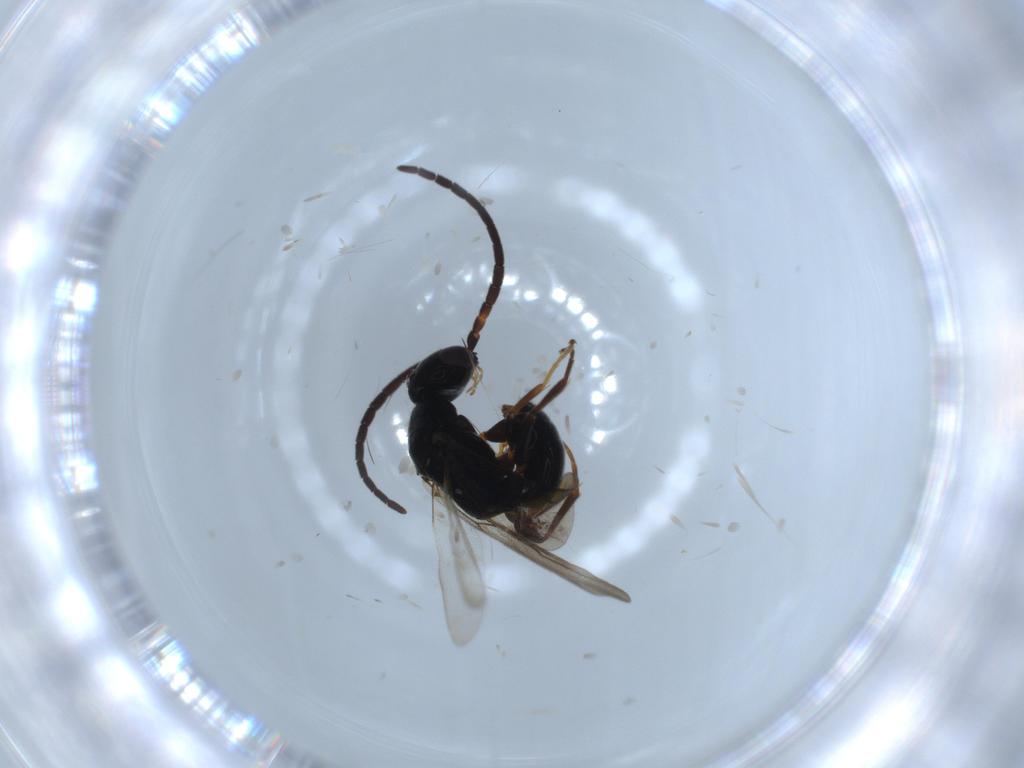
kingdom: Animalia
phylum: Arthropoda
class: Insecta
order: Hymenoptera
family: Bethylidae
